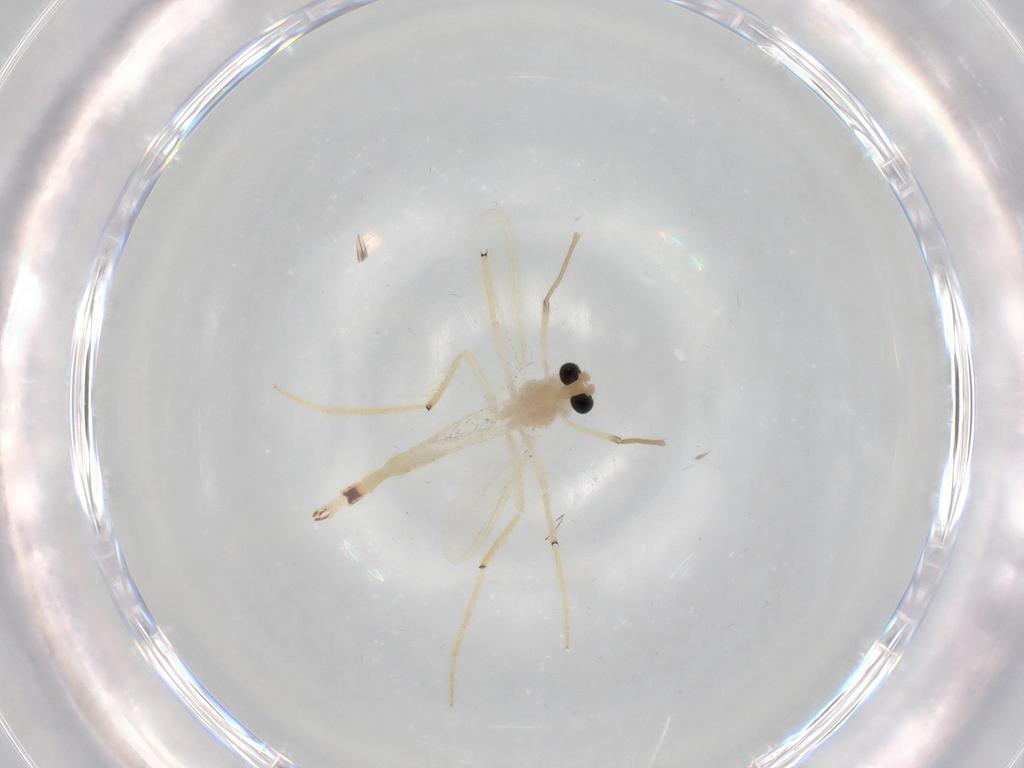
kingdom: Animalia
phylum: Arthropoda
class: Insecta
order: Diptera
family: Chironomidae
